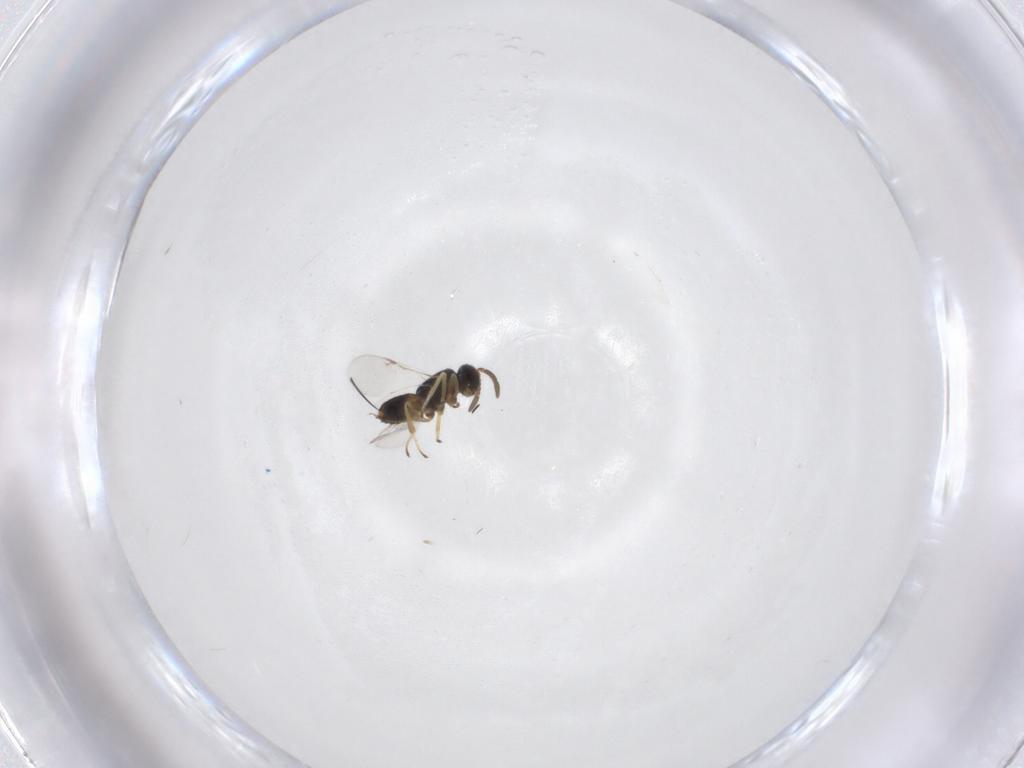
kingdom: Animalia
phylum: Arthropoda
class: Insecta
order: Hymenoptera
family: Encyrtidae
